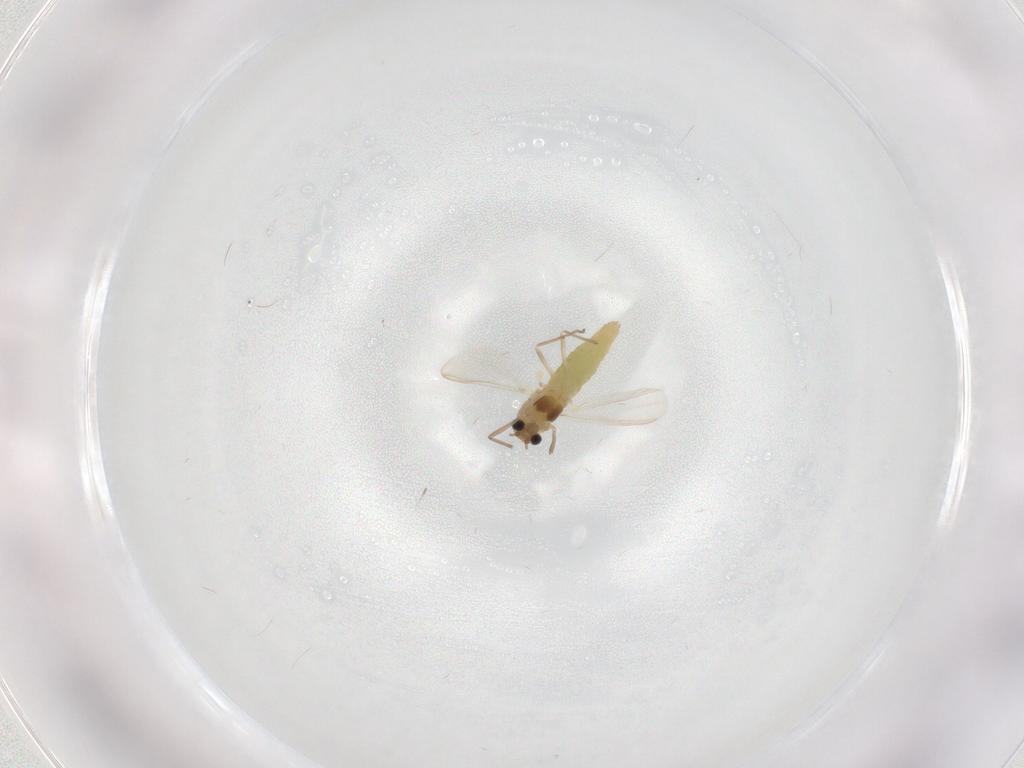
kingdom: Animalia
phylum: Arthropoda
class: Insecta
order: Diptera
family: Chironomidae
